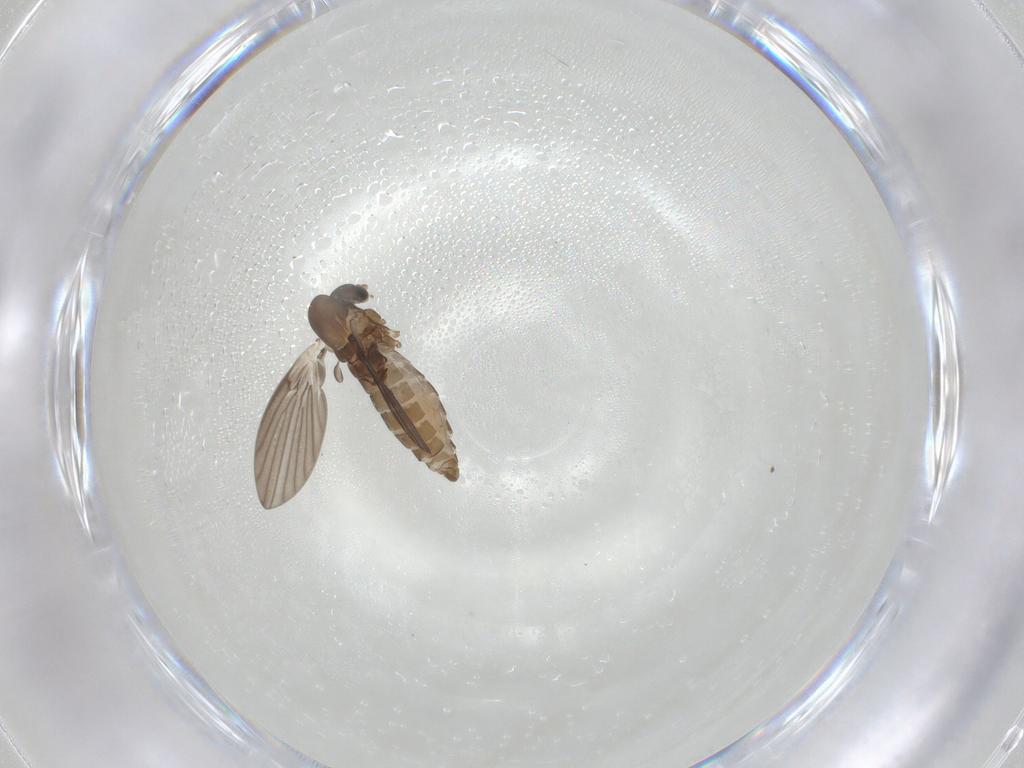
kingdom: Animalia
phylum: Arthropoda
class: Insecta
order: Diptera
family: Phoridae
